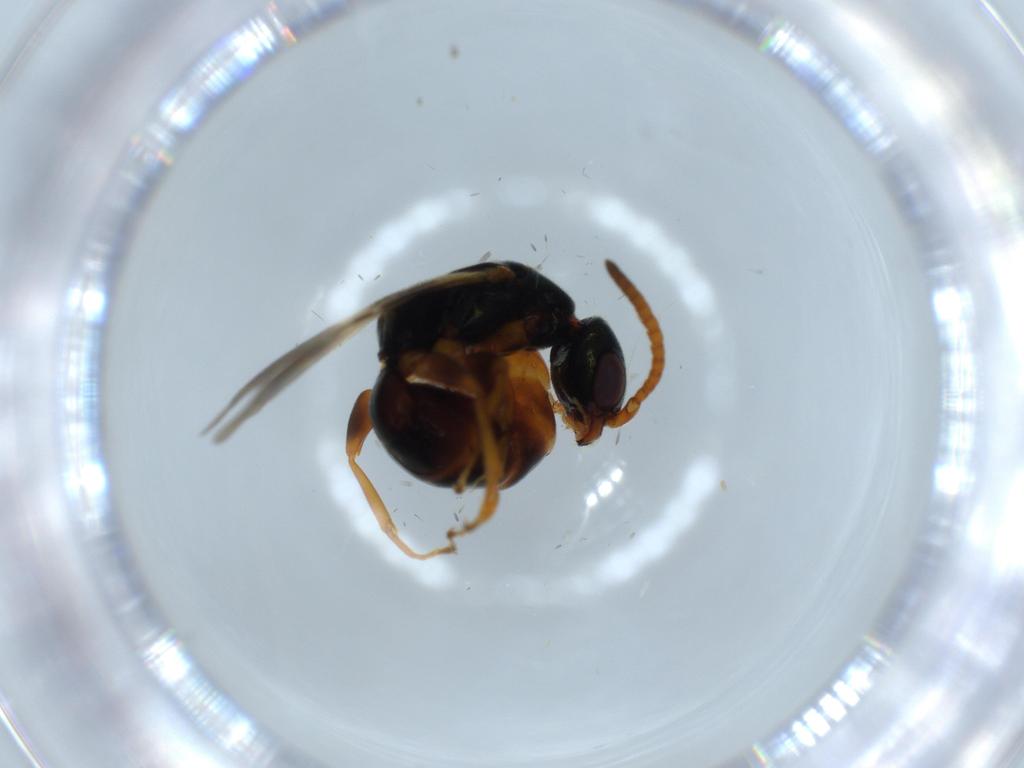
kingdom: Animalia
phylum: Arthropoda
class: Insecta
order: Hymenoptera
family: Bethylidae
